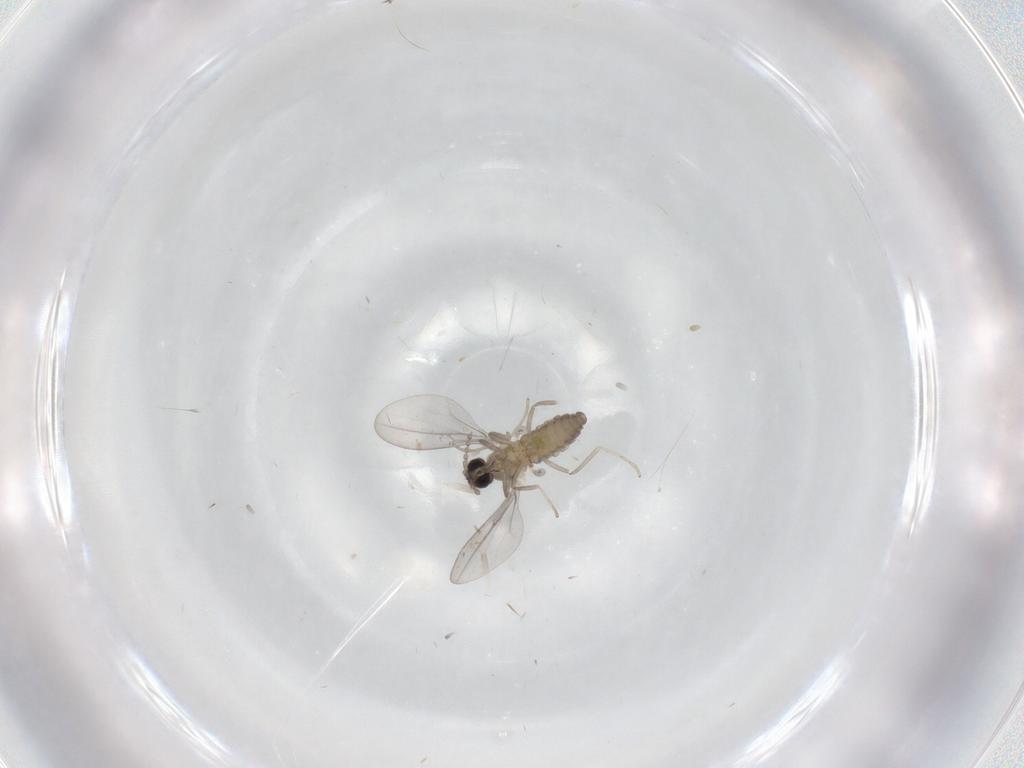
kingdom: Animalia
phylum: Arthropoda
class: Insecta
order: Diptera
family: Cecidomyiidae
